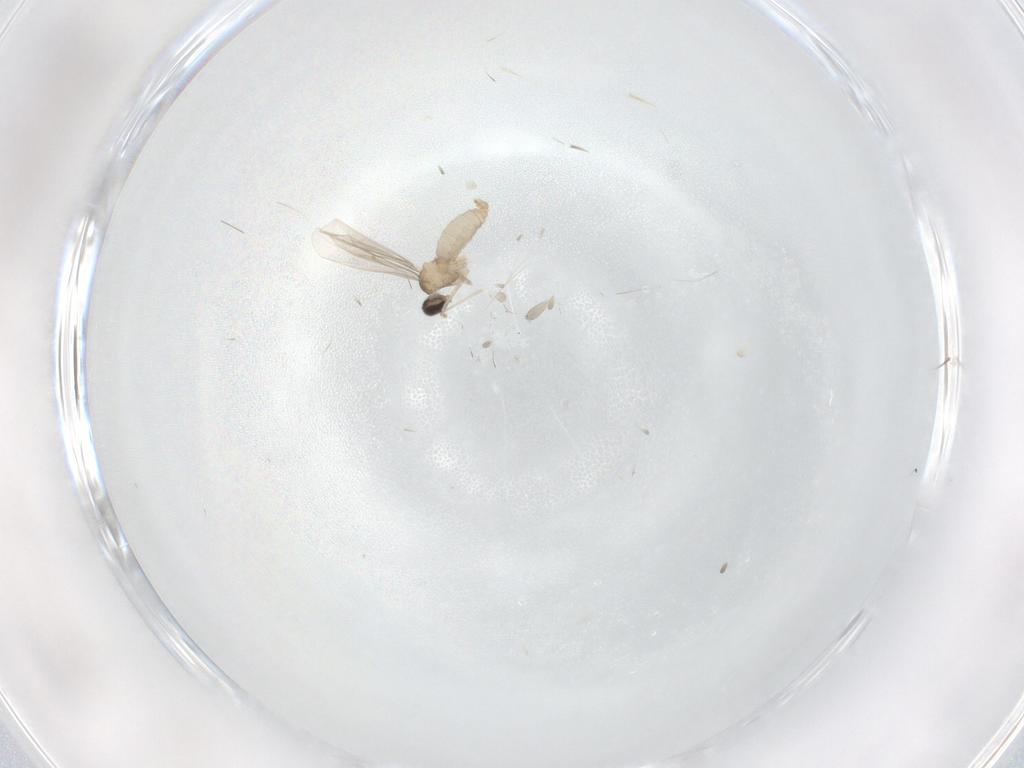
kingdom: Animalia
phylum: Arthropoda
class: Insecta
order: Diptera
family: Cecidomyiidae
